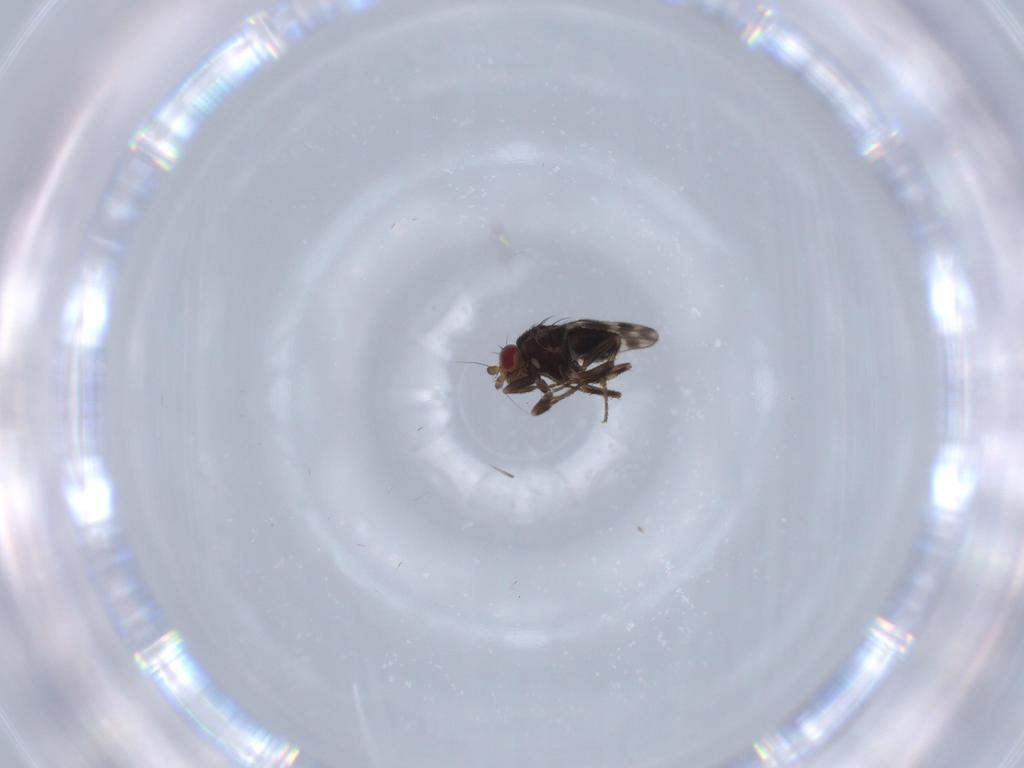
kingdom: Animalia
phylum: Arthropoda
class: Insecta
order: Diptera
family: Sphaeroceridae
